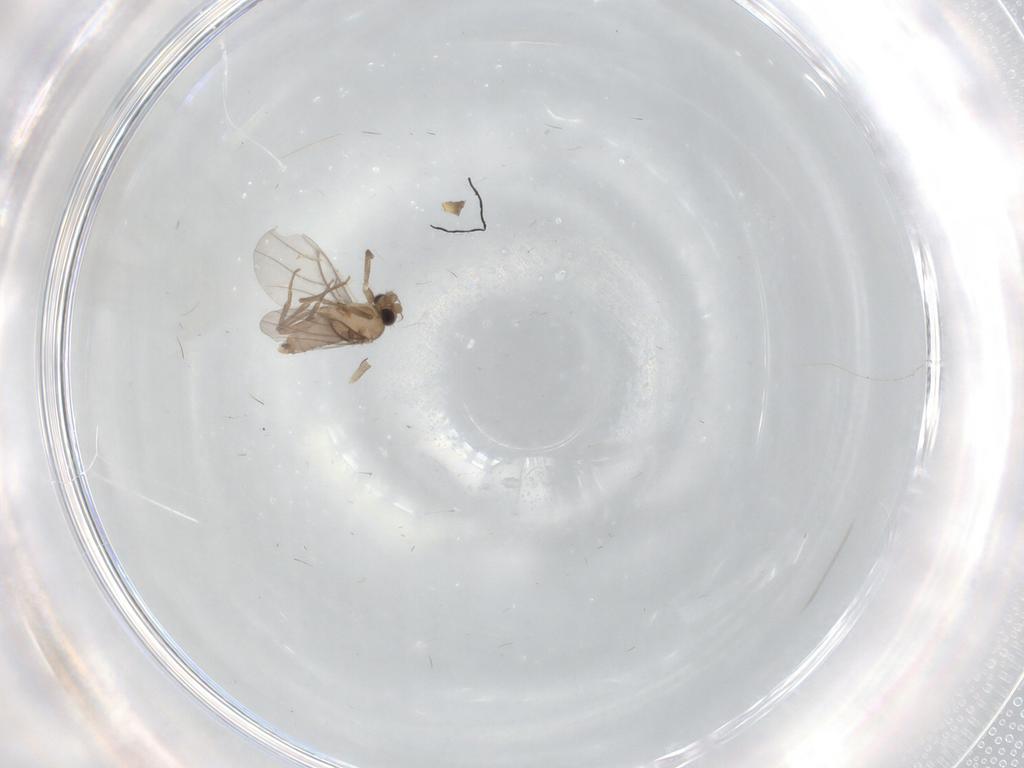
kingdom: Animalia
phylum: Arthropoda
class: Insecta
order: Diptera
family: Cecidomyiidae
